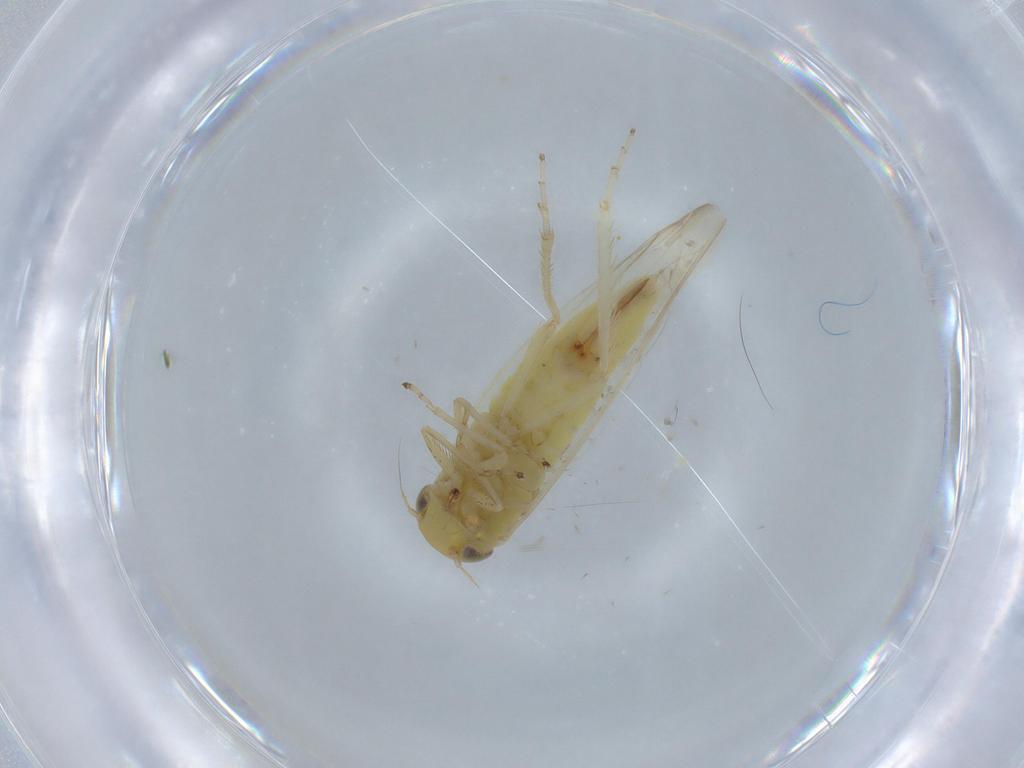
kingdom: Animalia
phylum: Arthropoda
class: Insecta
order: Hemiptera
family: Cicadellidae
